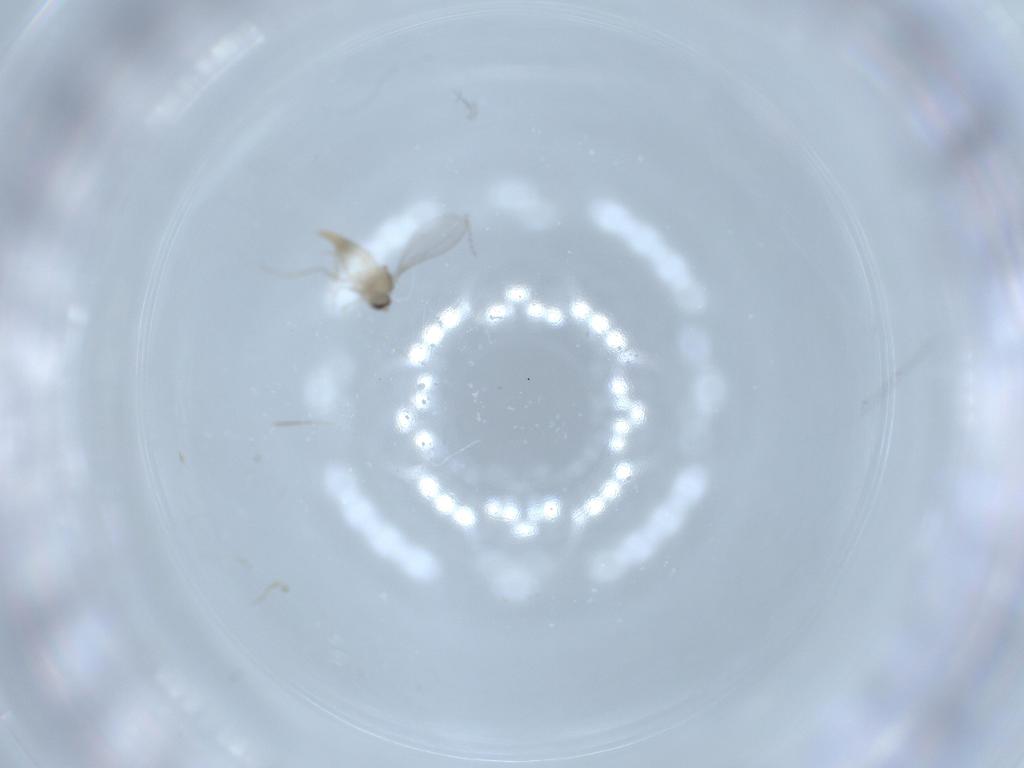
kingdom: Animalia
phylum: Arthropoda
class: Insecta
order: Diptera
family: Cecidomyiidae
